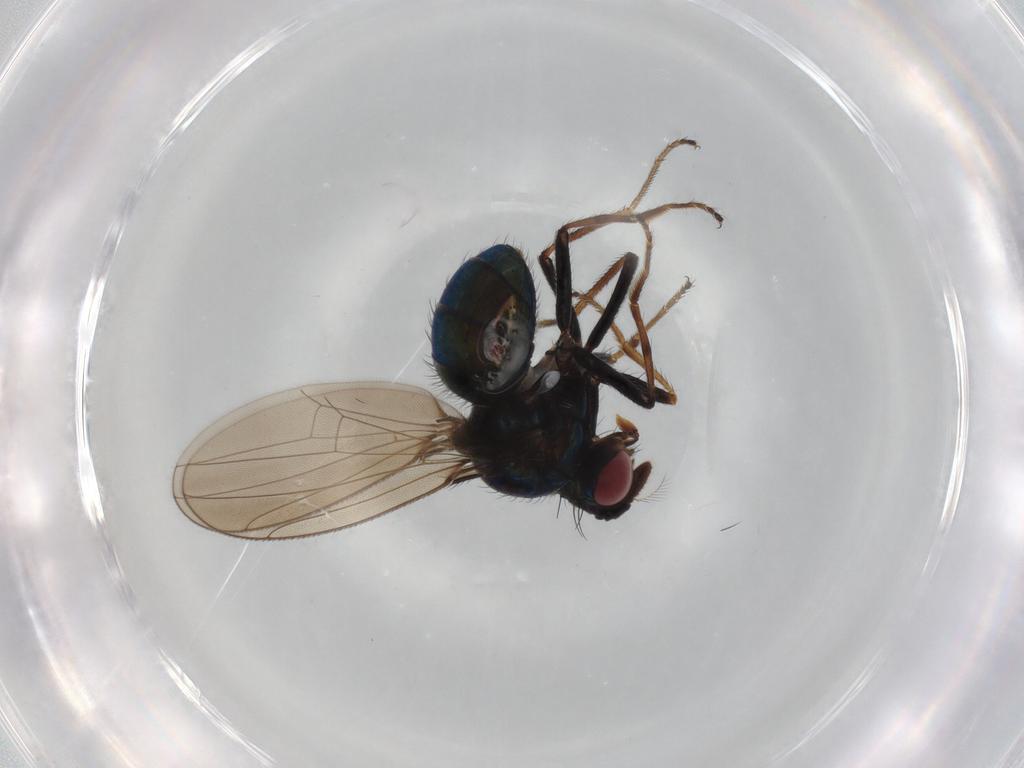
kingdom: Animalia
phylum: Arthropoda
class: Insecta
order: Diptera
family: Ephydridae
